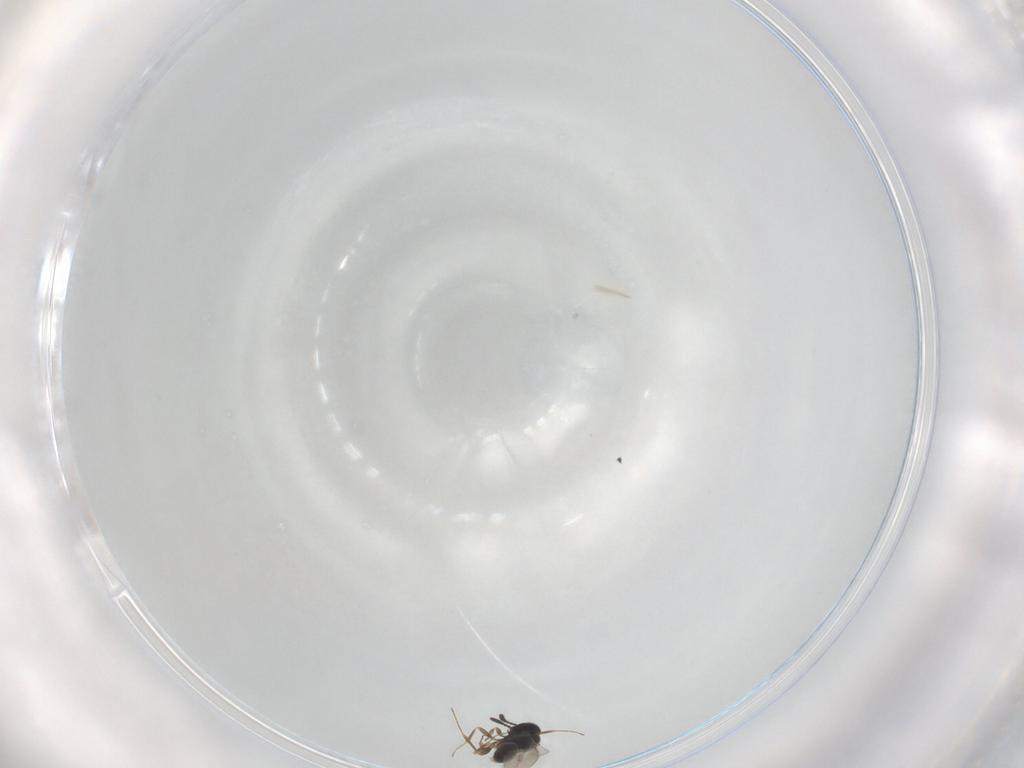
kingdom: Animalia
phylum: Arthropoda
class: Insecta
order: Hymenoptera
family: Scelionidae
